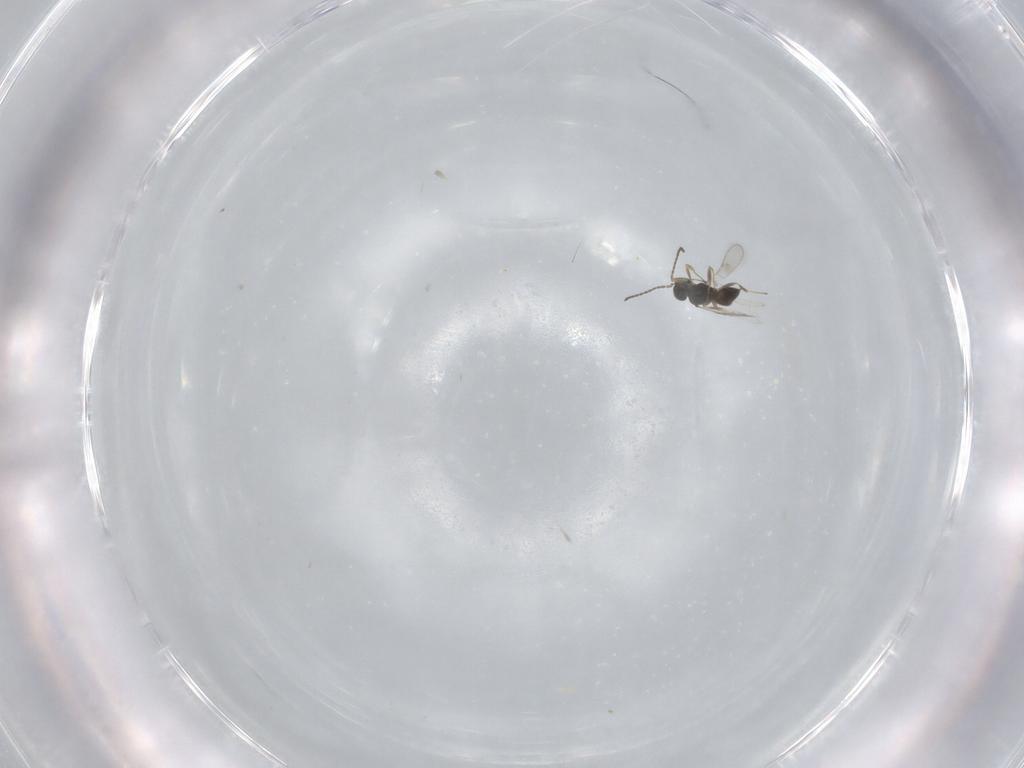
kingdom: Animalia
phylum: Arthropoda
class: Insecta
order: Hymenoptera
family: Scelionidae
